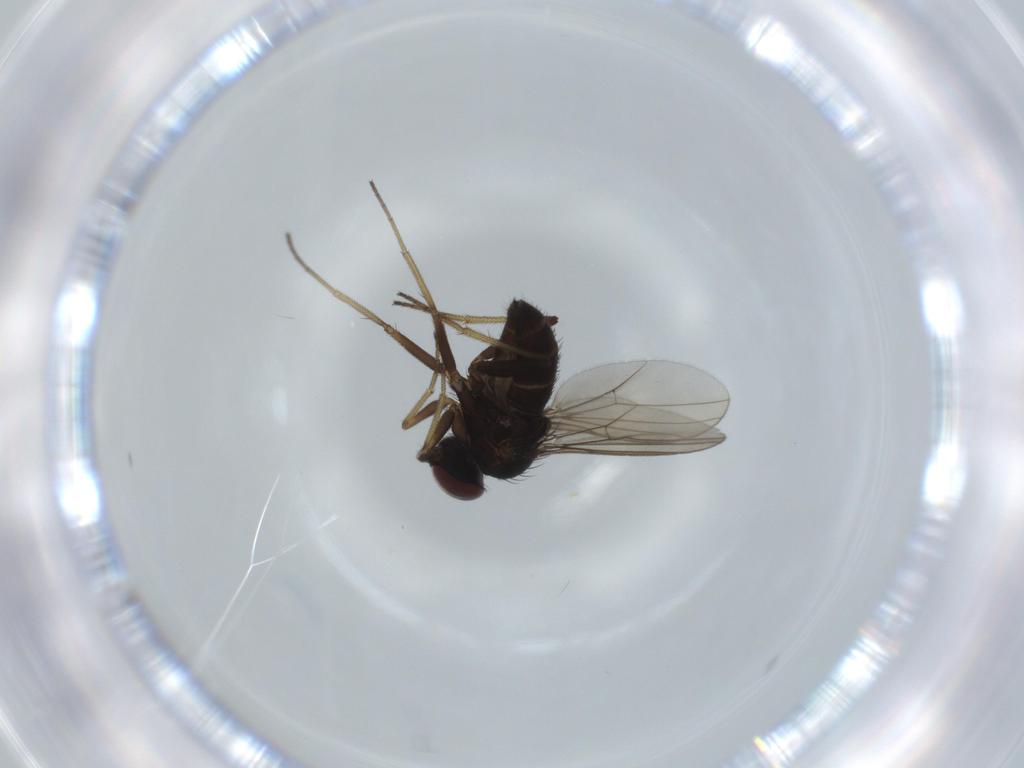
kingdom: Animalia
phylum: Arthropoda
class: Insecta
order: Diptera
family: Dolichopodidae
